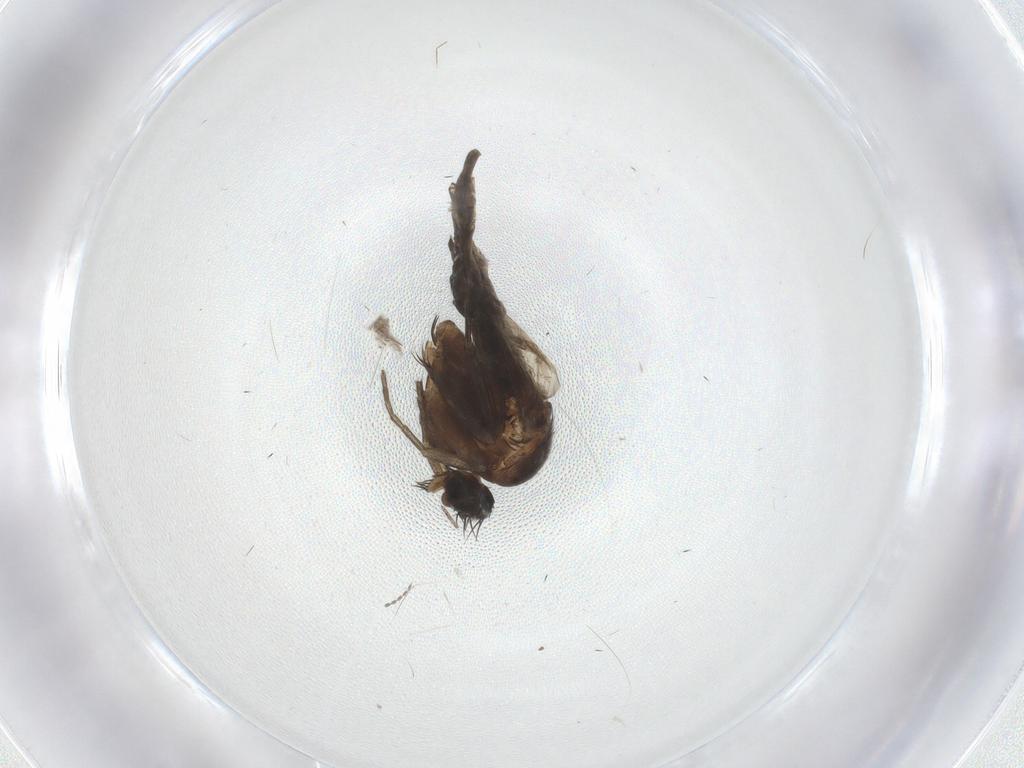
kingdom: Animalia
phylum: Arthropoda
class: Insecta
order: Diptera
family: Phoridae
